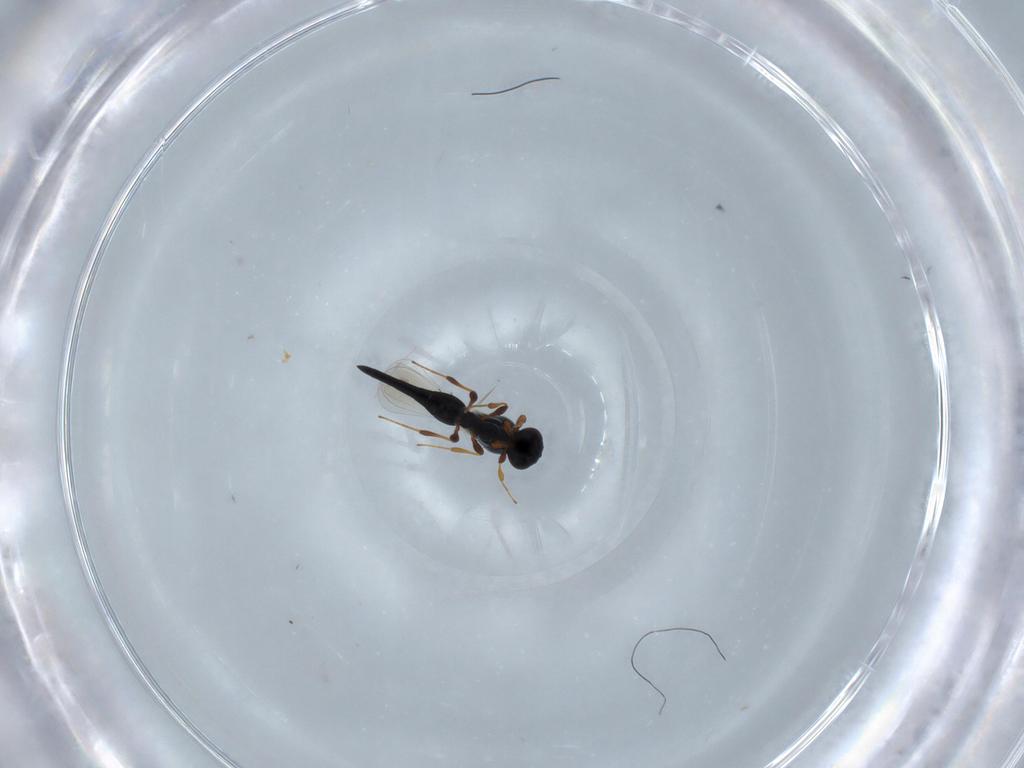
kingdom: Animalia
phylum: Arthropoda
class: Insecta
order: Hymenoptera
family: Platygastridae
